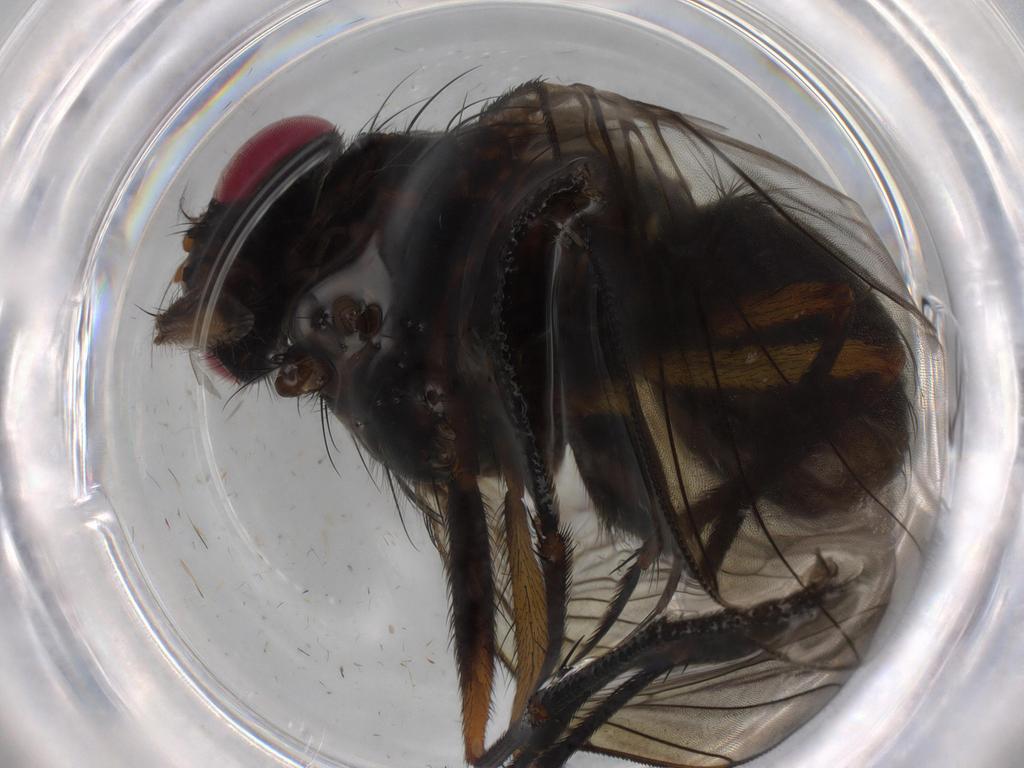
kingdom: Animalia
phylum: Arthropoda
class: Insecta
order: Diptera
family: Muscidae
